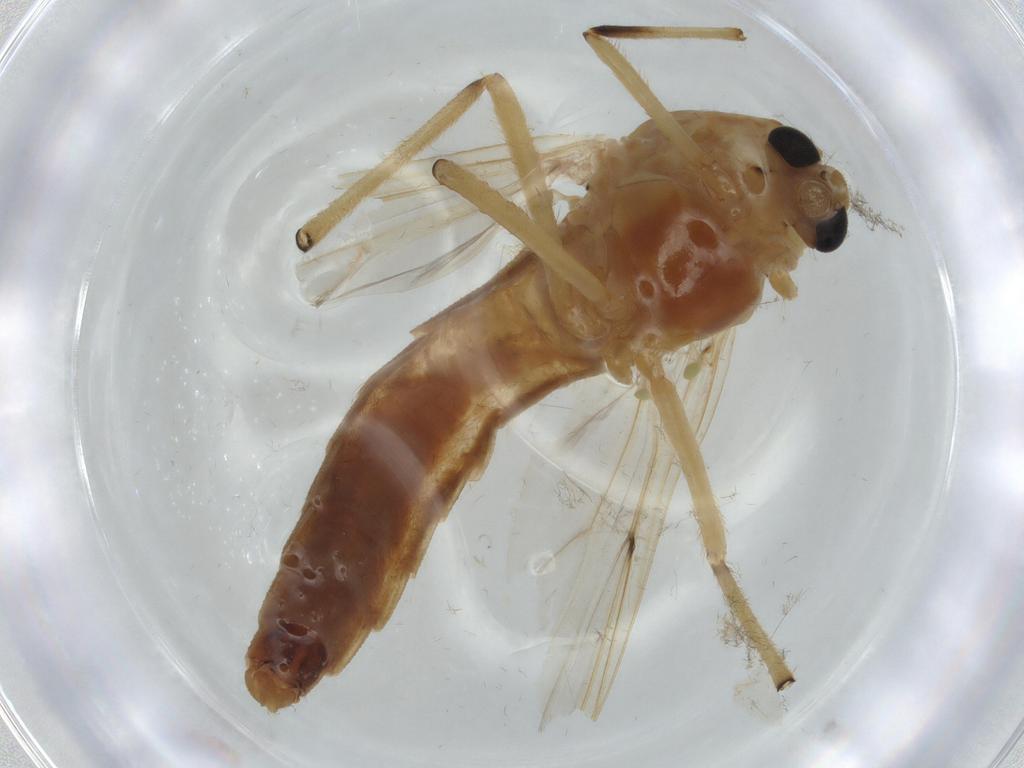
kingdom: Animalia
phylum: Arthropoda
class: Insecta
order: Diptera
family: Chironomidae
